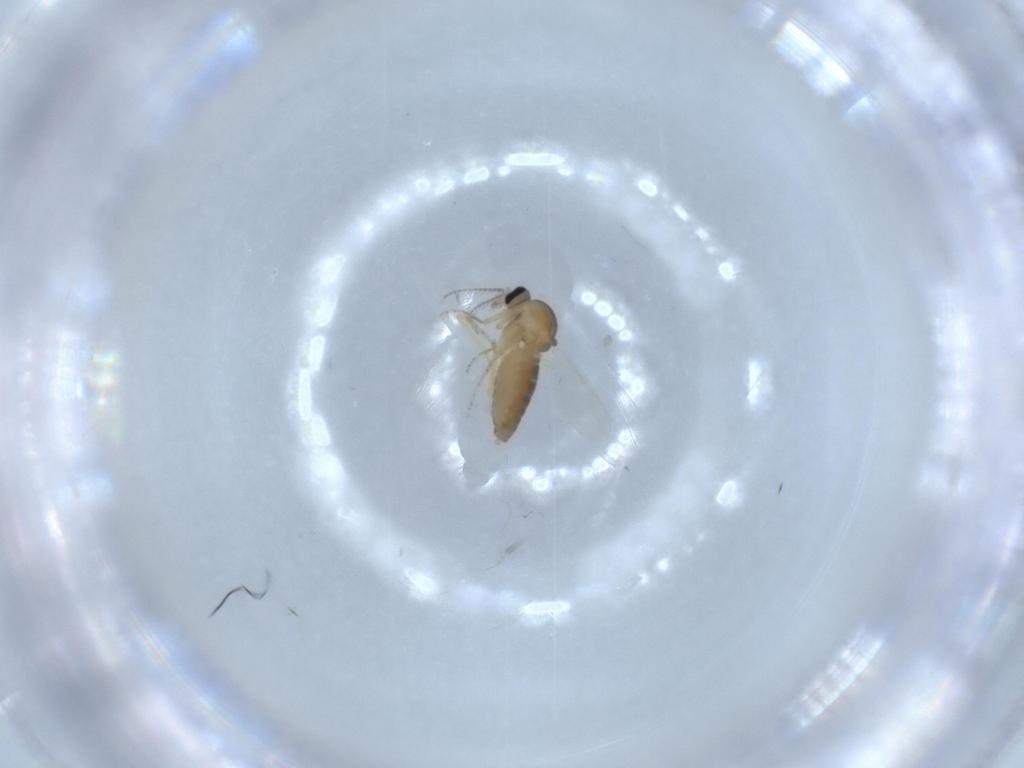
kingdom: Animalia
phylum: Arthropoda
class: Insecta
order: Diptera
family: Ceratopogonidae
